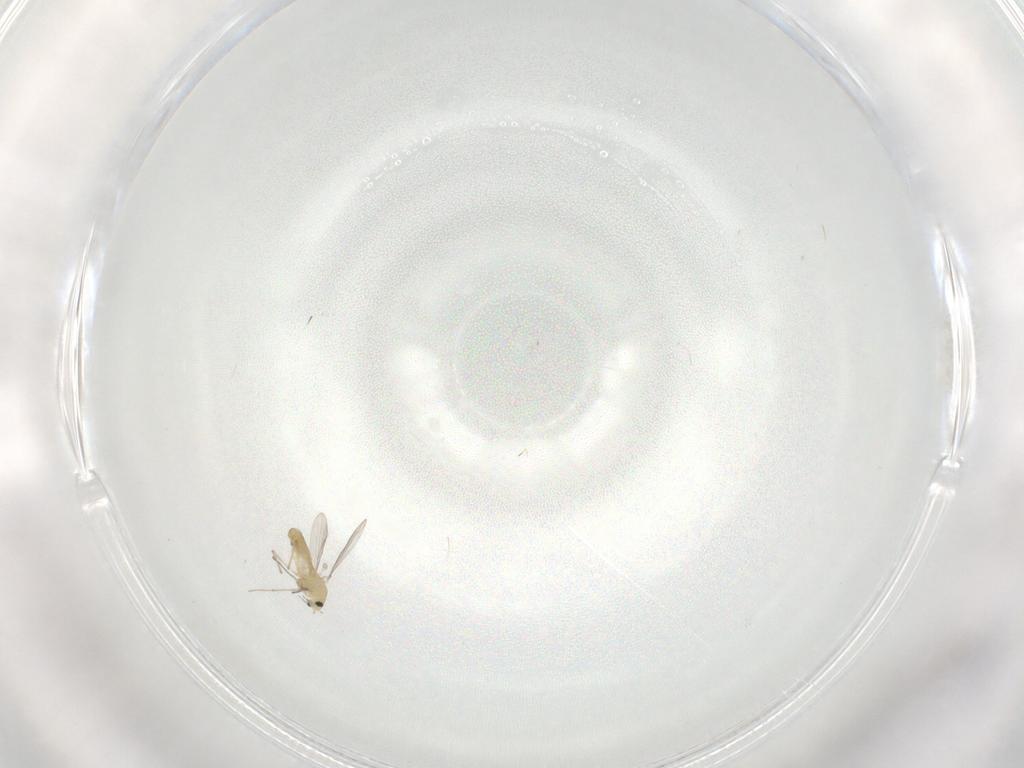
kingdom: Animalia
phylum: Arthropoda
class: Insecta
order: Diptera
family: Chironomidae
